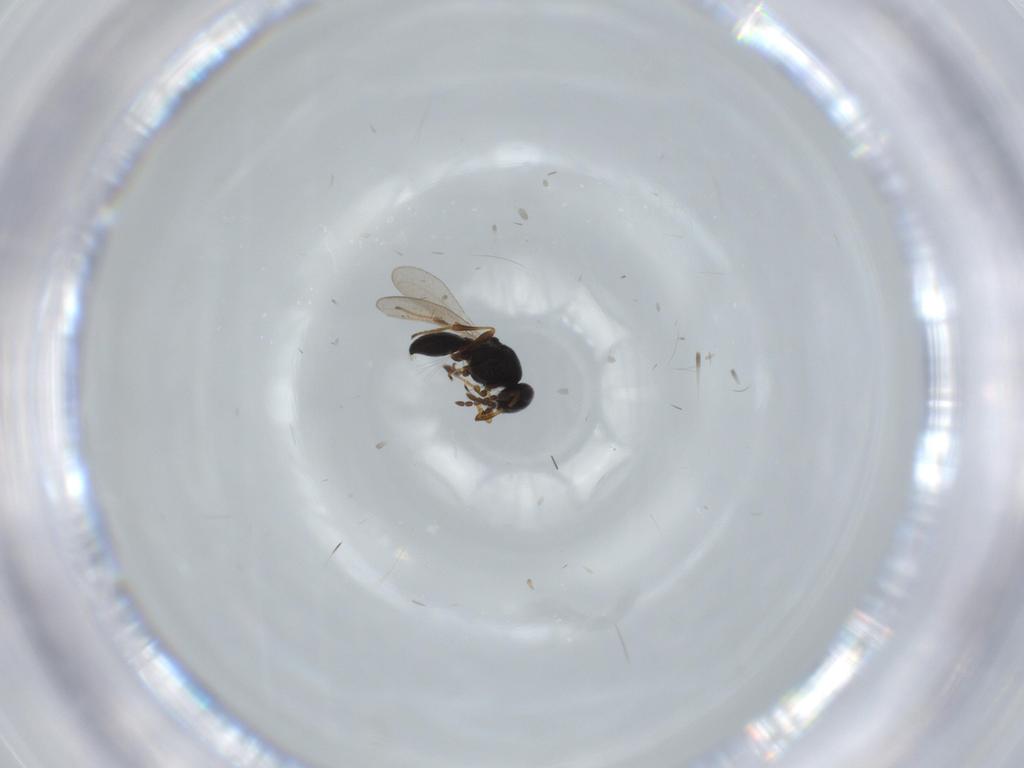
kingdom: Animalia
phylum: Arthropoda
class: Insecta
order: Hymenoptera
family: Platygastridae
